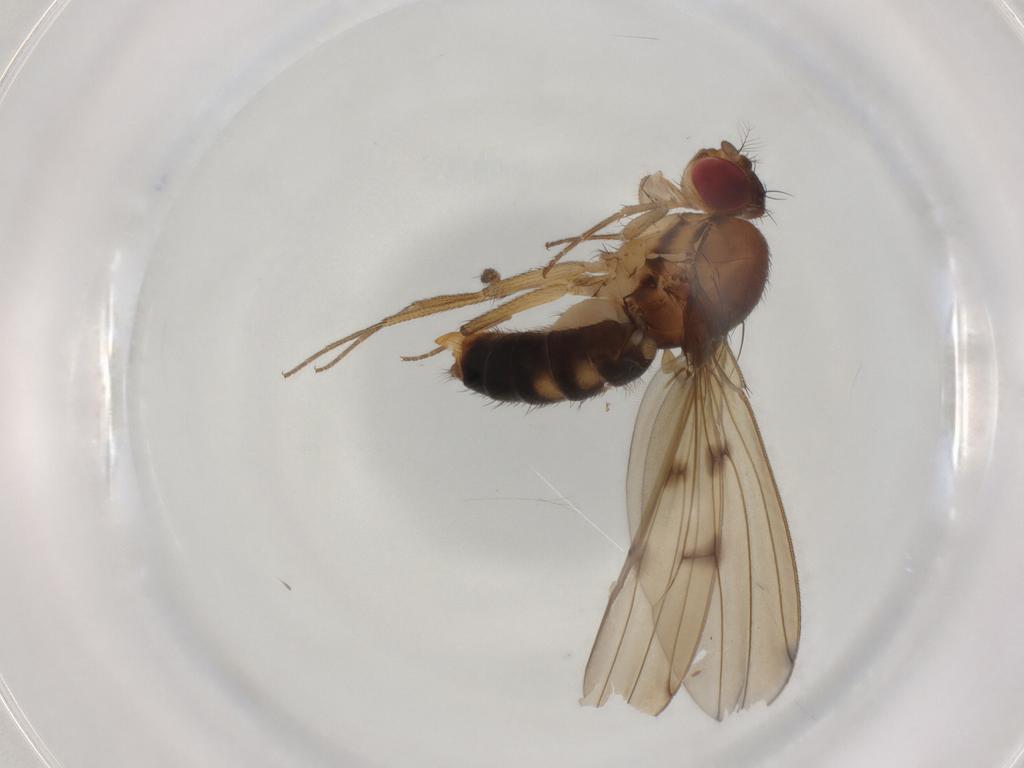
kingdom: Animalia
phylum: Arthropoda
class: Insecta
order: Diptera
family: Drosophilidae
